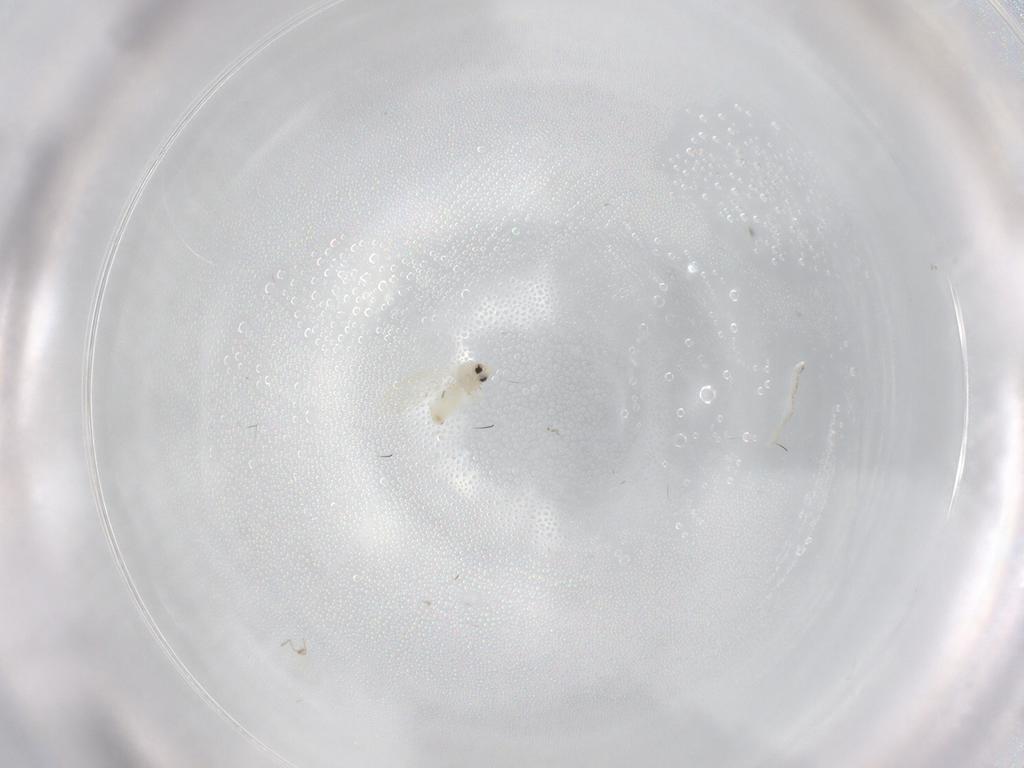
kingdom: Animalia
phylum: Arthropoda
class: Insecta
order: Hemiptera
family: Aleyrodidae
